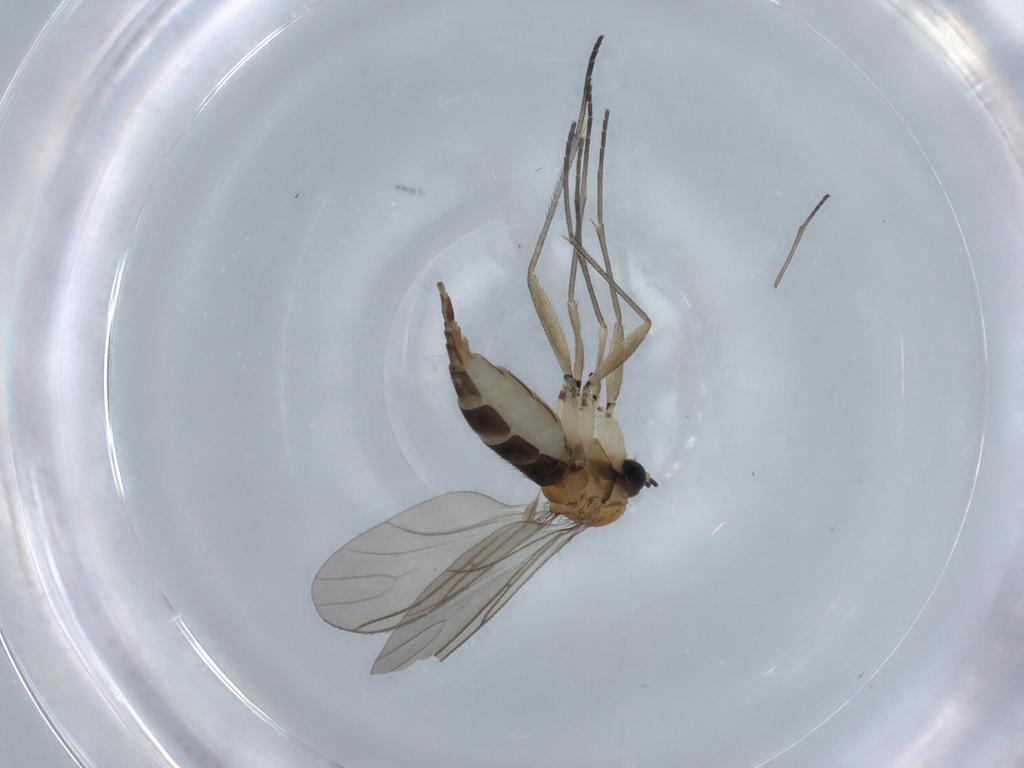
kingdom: Animalia
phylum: Arthropoda
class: Insecta
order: Diptera
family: Sciaridae
